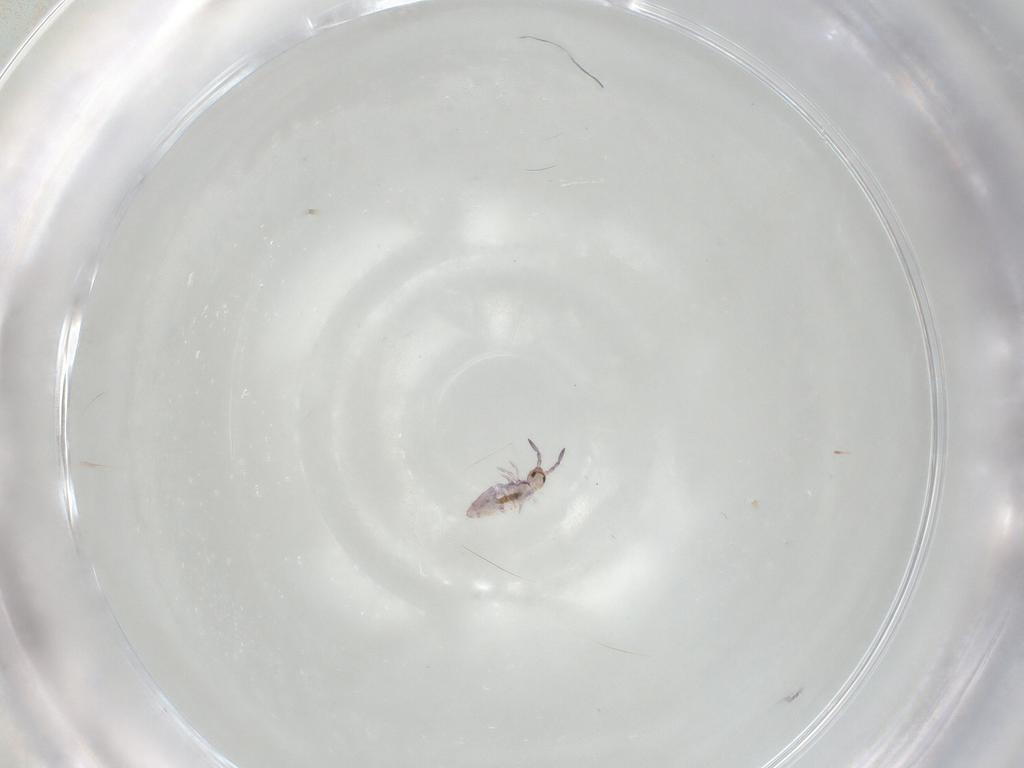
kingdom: Animalia
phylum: Arthropoda
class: Collembola
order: Entomobryomorpha
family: Entomobryidae
